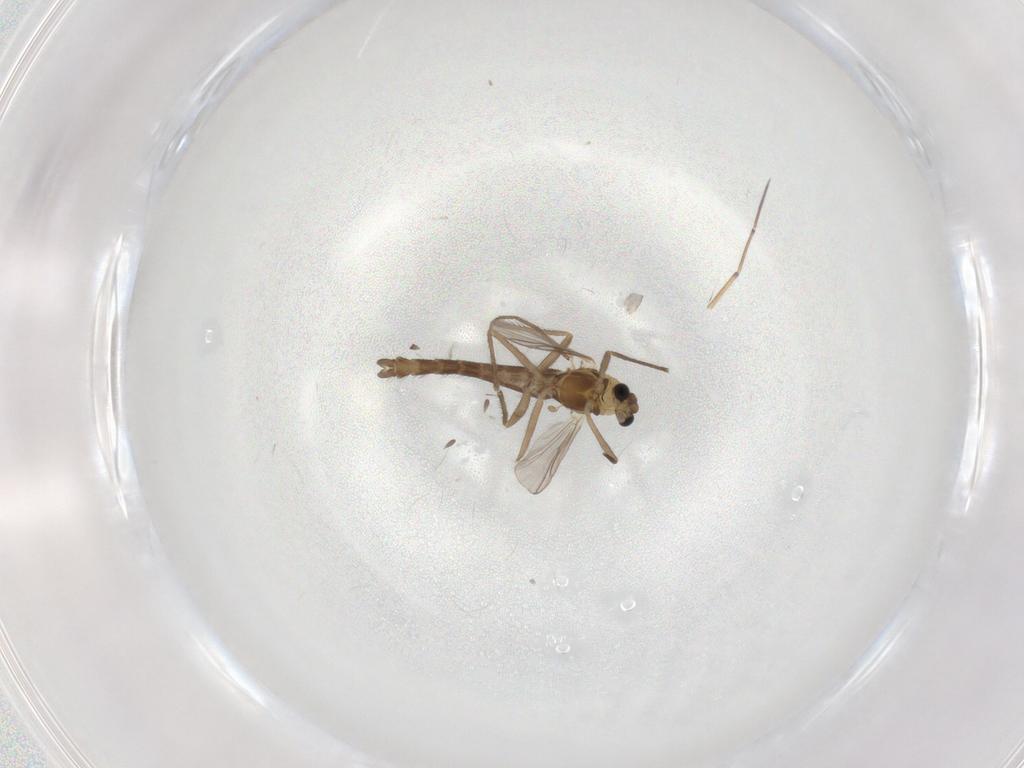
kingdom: Animalia
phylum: Arthropoda
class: Insecta
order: Diptera
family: Chironomidae
